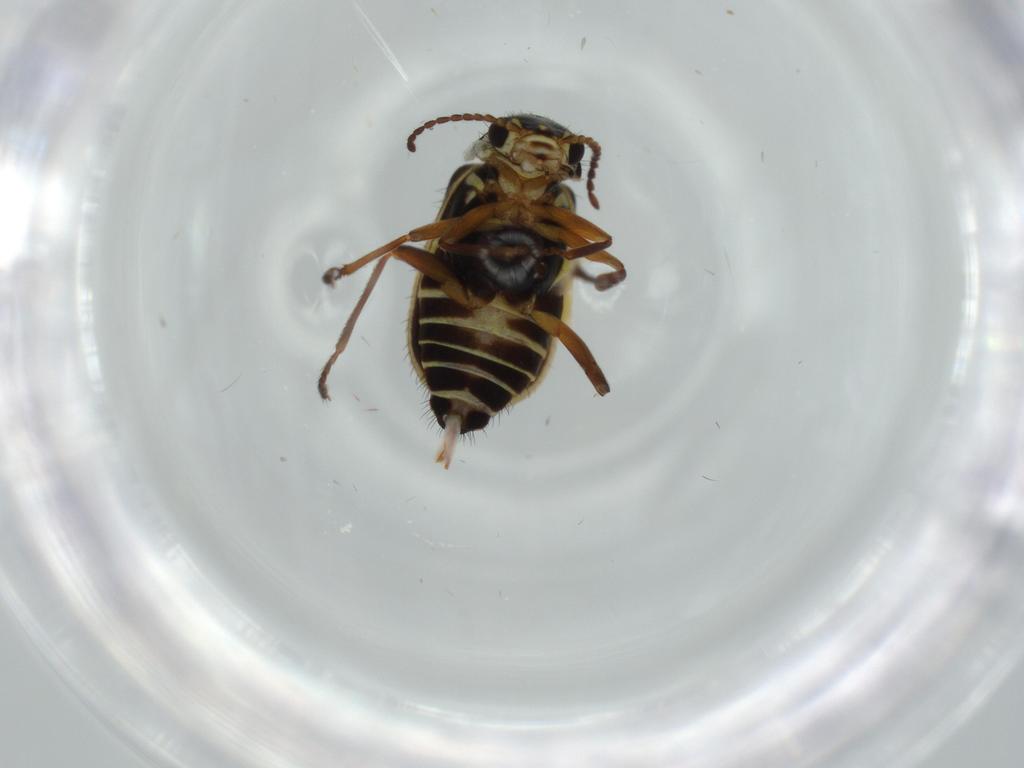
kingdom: Animalia
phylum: Arthropoda
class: Insecta
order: Coleoptera
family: Melyridae
